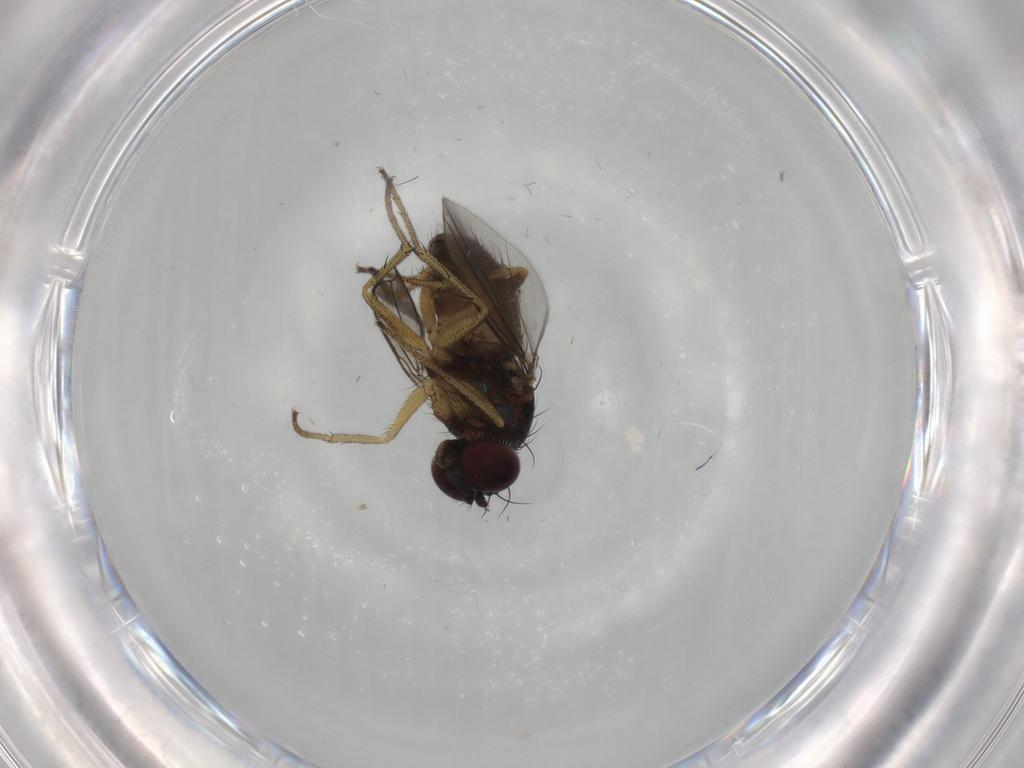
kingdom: Animalia
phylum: Arthropoda
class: Insecta
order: Diptera
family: Dolichopodidae
